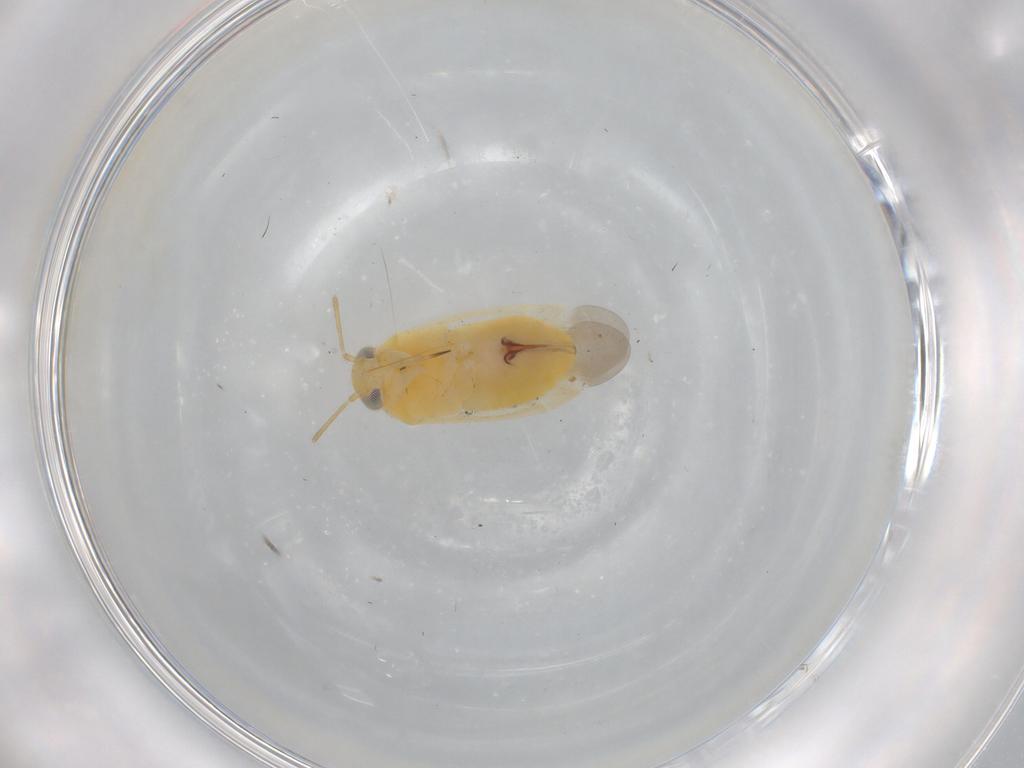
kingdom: Animalia
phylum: Arthropoda
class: Insecta
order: Hemiptera
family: Miridae
